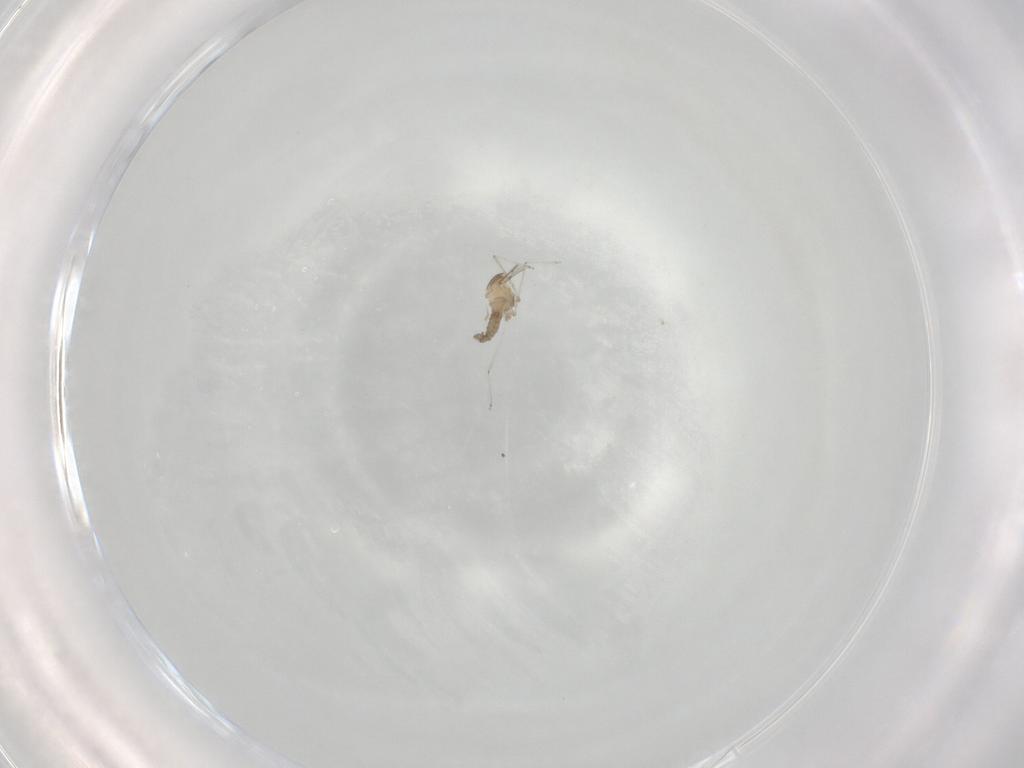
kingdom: Animalia
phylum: Arthropoda
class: Insecta
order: Diptera
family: Cecidomyiidae
